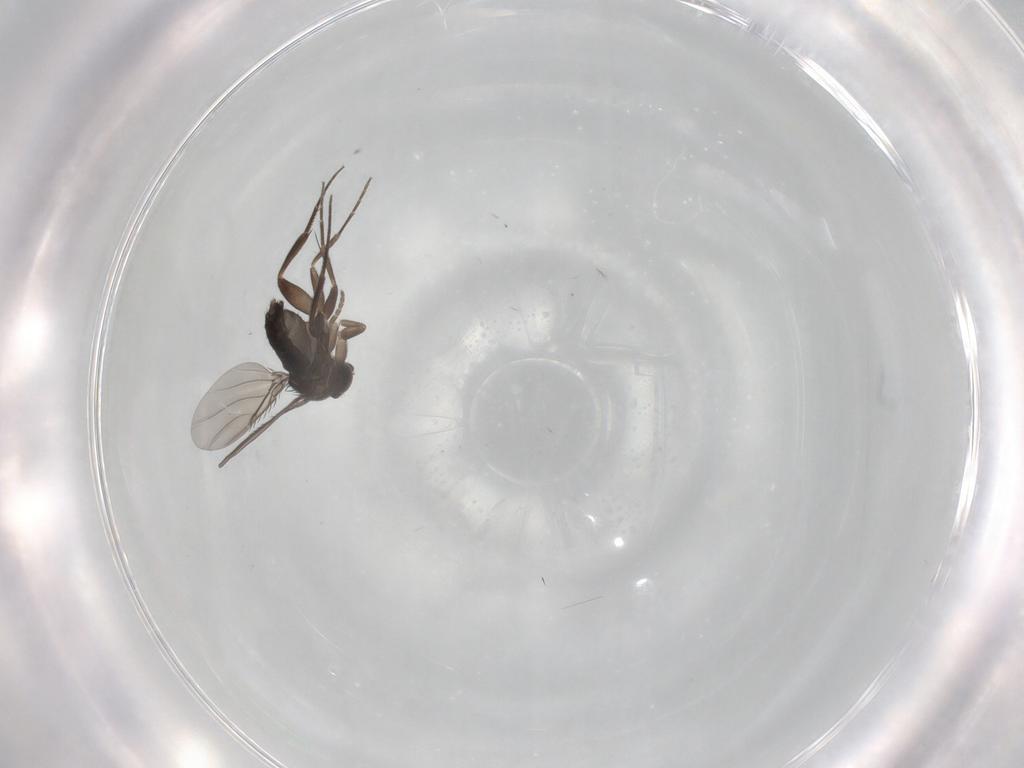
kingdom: Animalia
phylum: Arthropoda
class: Insecta
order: Diptera
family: Phoridae
